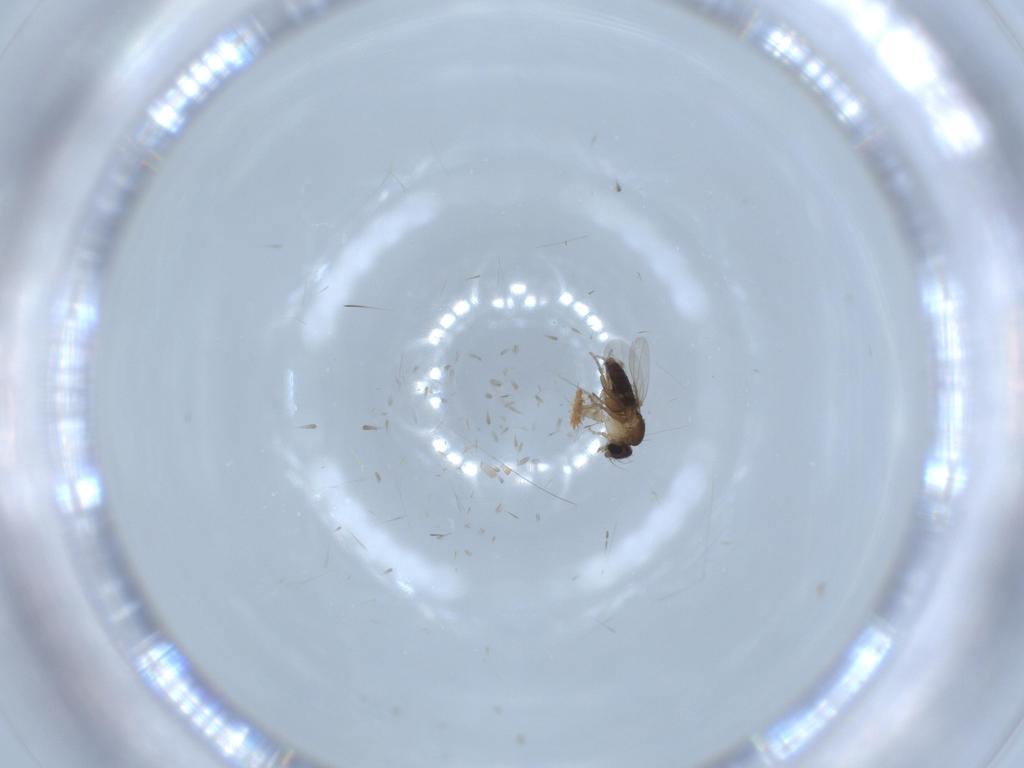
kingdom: Animalia
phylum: Arthropoda
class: Insecta
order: Diptera
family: Phoridae
